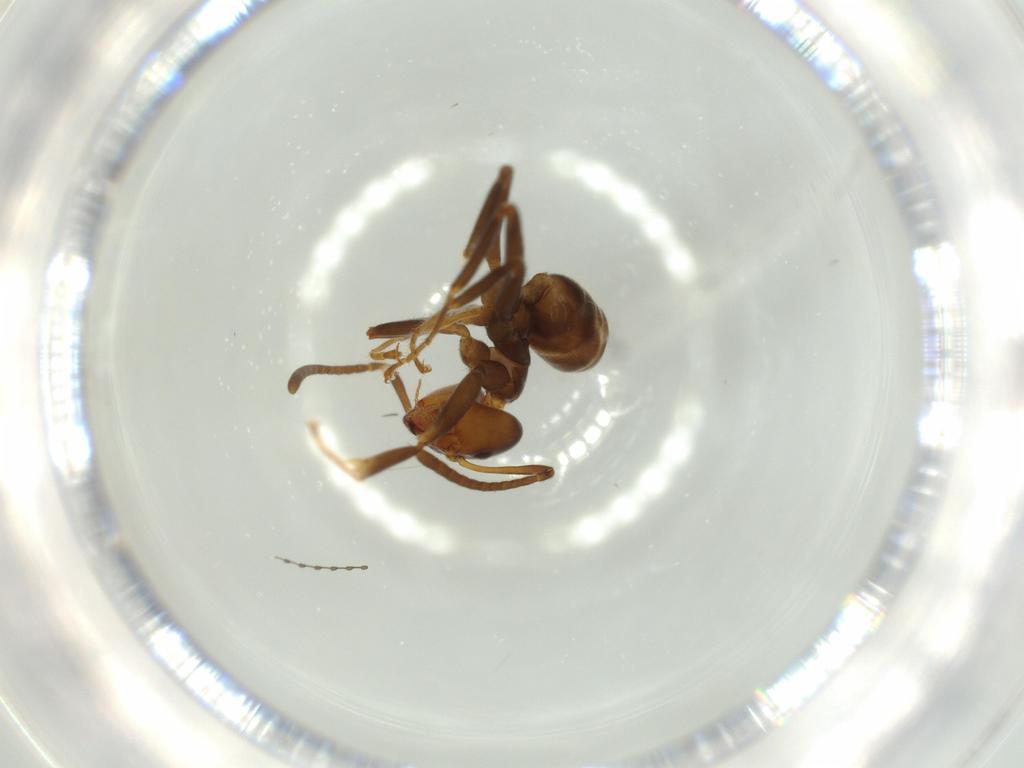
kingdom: Animalia
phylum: Arthropoda
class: Insecta
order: Hymenoptera
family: Formicidae
